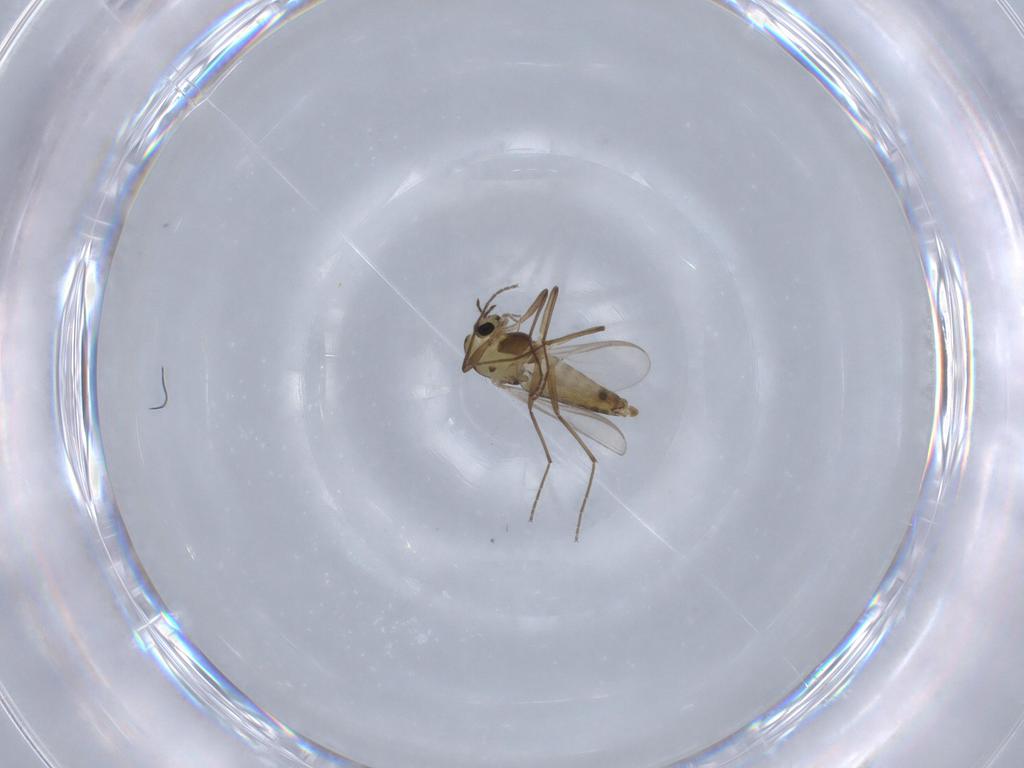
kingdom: Animalia
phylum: Arthropoda
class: Insecta
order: Diptera
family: Chironomidae
